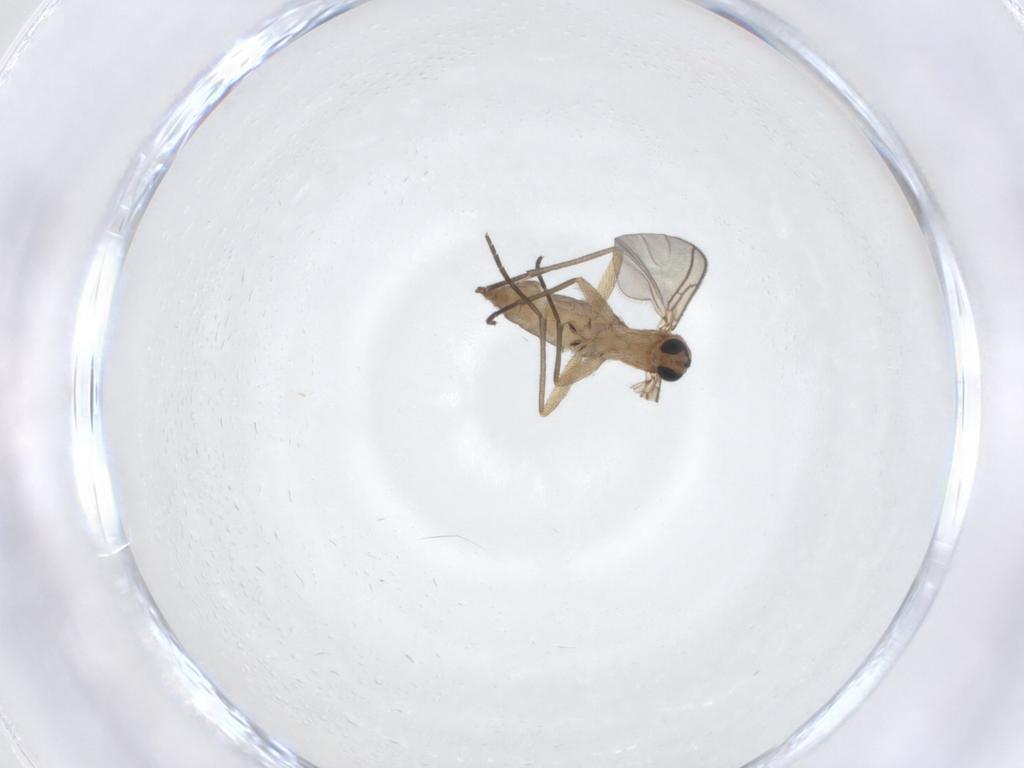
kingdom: Animalia
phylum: Arthropoda
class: Insecta
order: Diptera
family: Sciaridae
